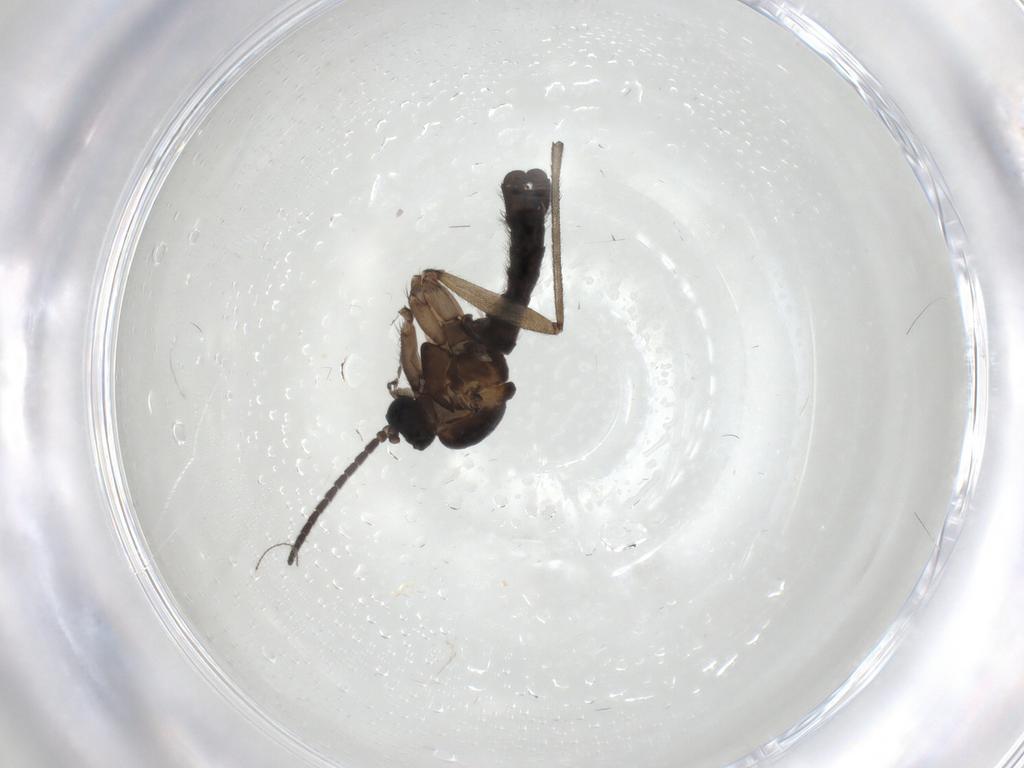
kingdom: Animalia
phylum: Arthropoda
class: Insecta
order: Diptera
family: Sciaridae
